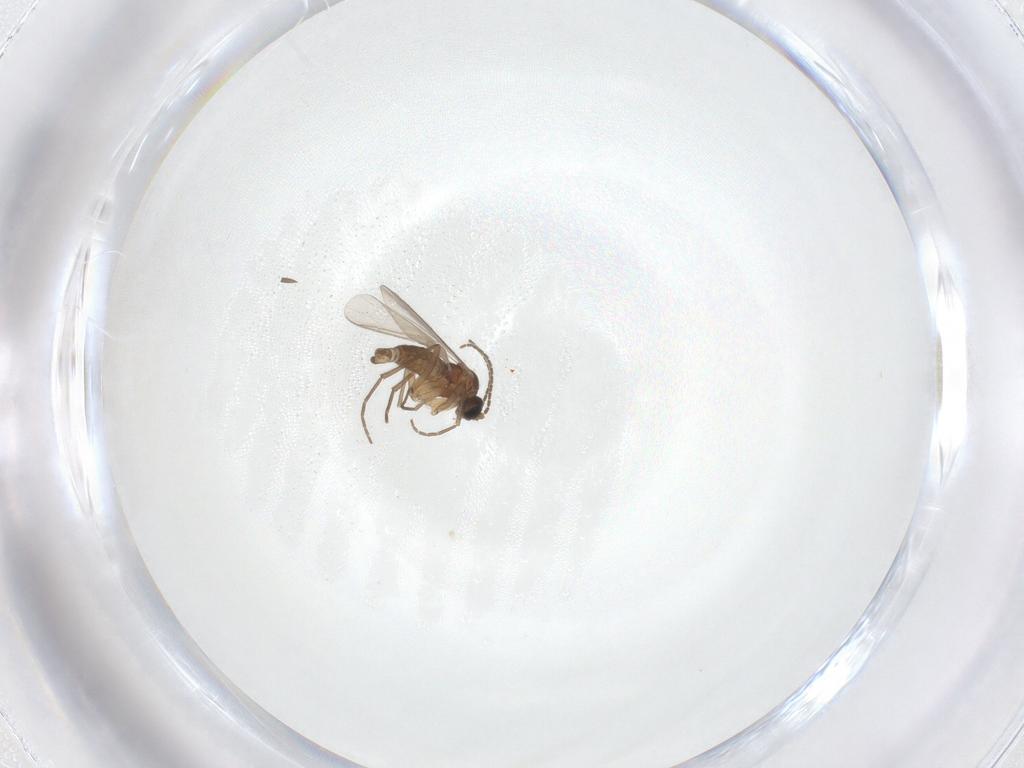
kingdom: Animalia
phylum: Arthropoda
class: Insecta
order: Diptera
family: Sciaridae
